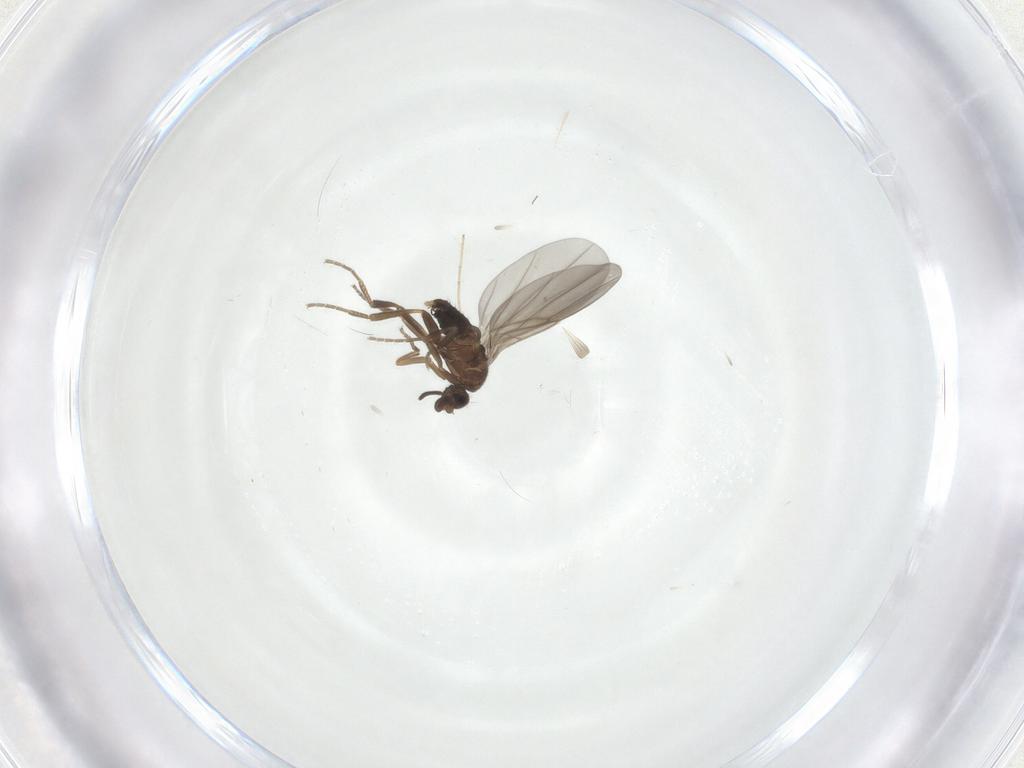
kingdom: Animalia
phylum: Arthropoda
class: Insecta
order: Diptera
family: Chironomidae
